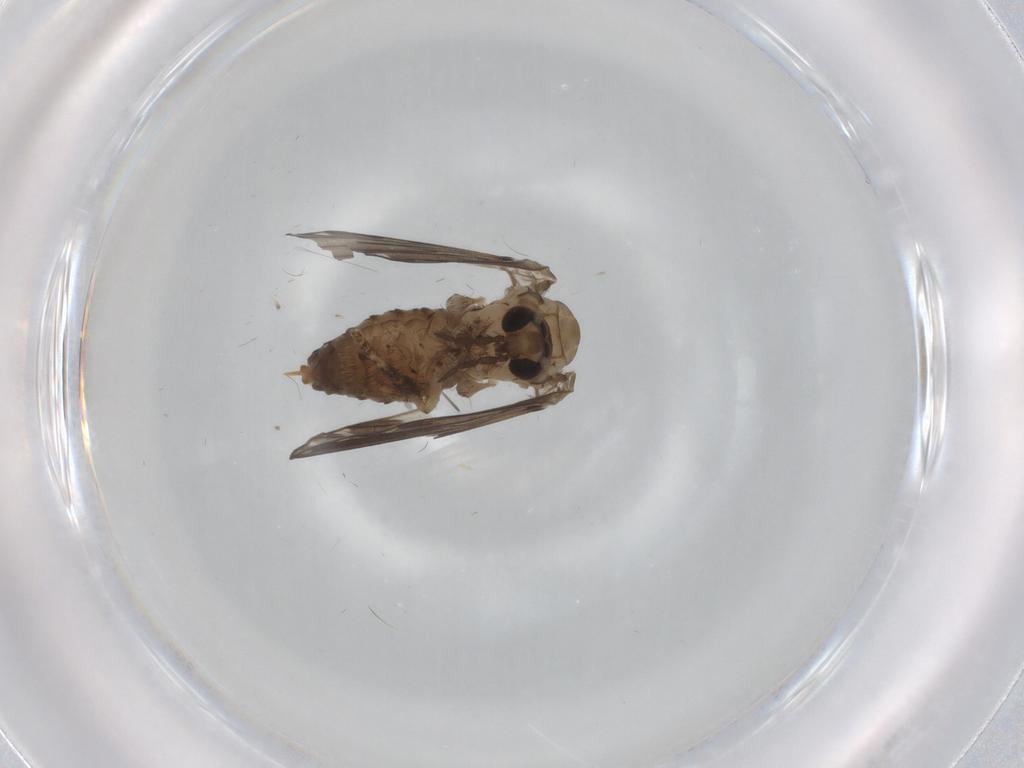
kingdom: Animalia
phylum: Arthropoda
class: Insecta
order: Diptera
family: Psychodidae
